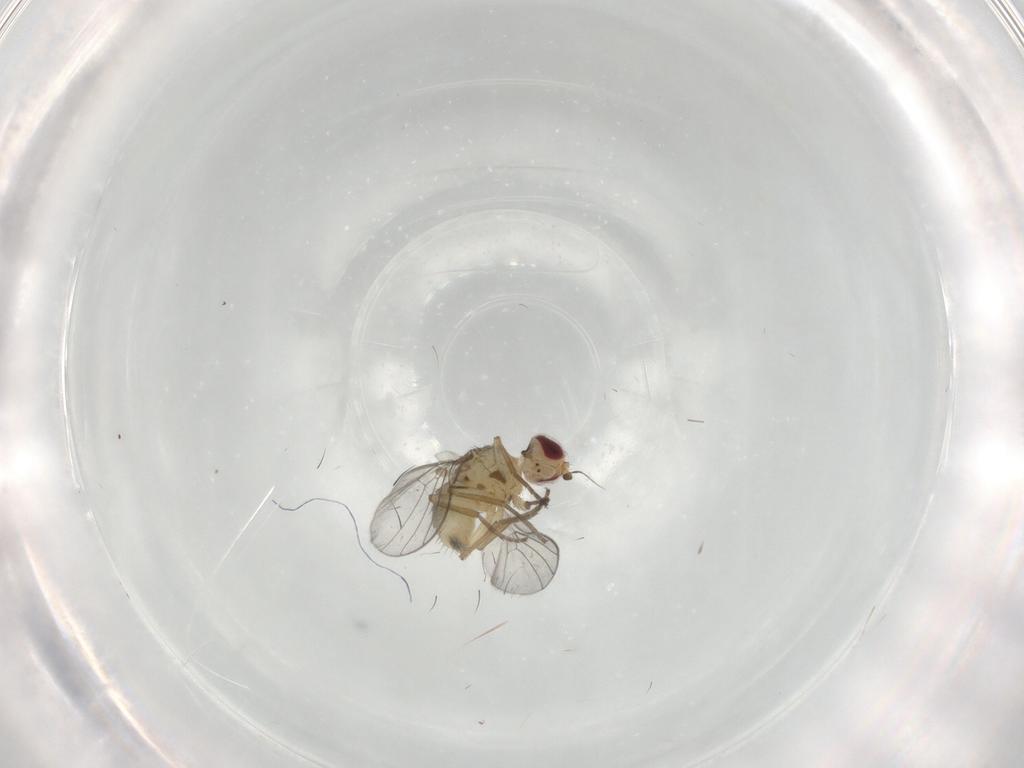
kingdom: Animalia
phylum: Arthropoda
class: Insecta
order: Diptera
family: Agromyzidae
